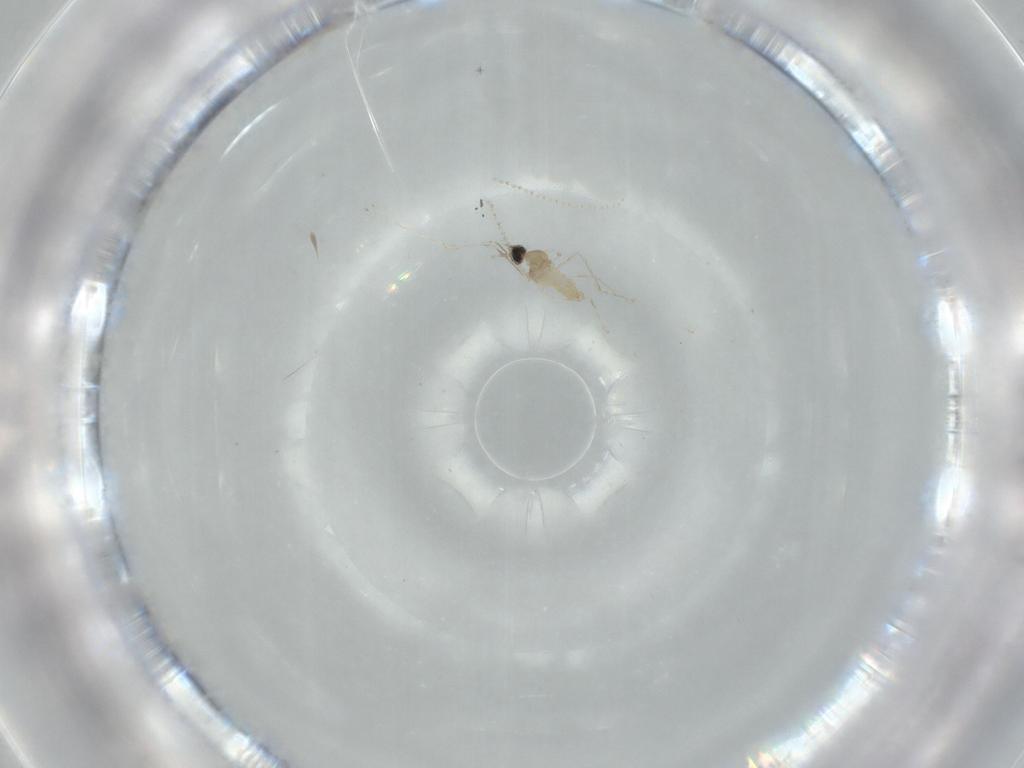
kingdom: Animalia
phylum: Arthropoda
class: Insecta
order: Diptera
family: Cecidomyiidae
